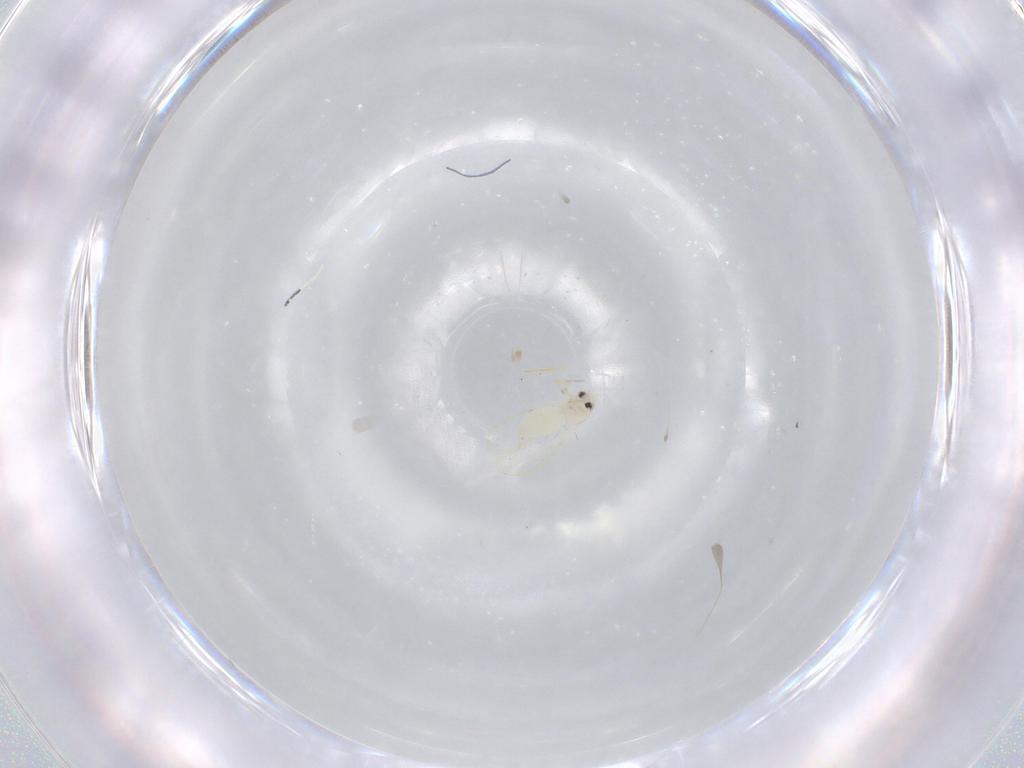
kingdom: Animalia
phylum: Arthropoda
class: Insecta
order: Hemiptera
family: Aleyrodidae
